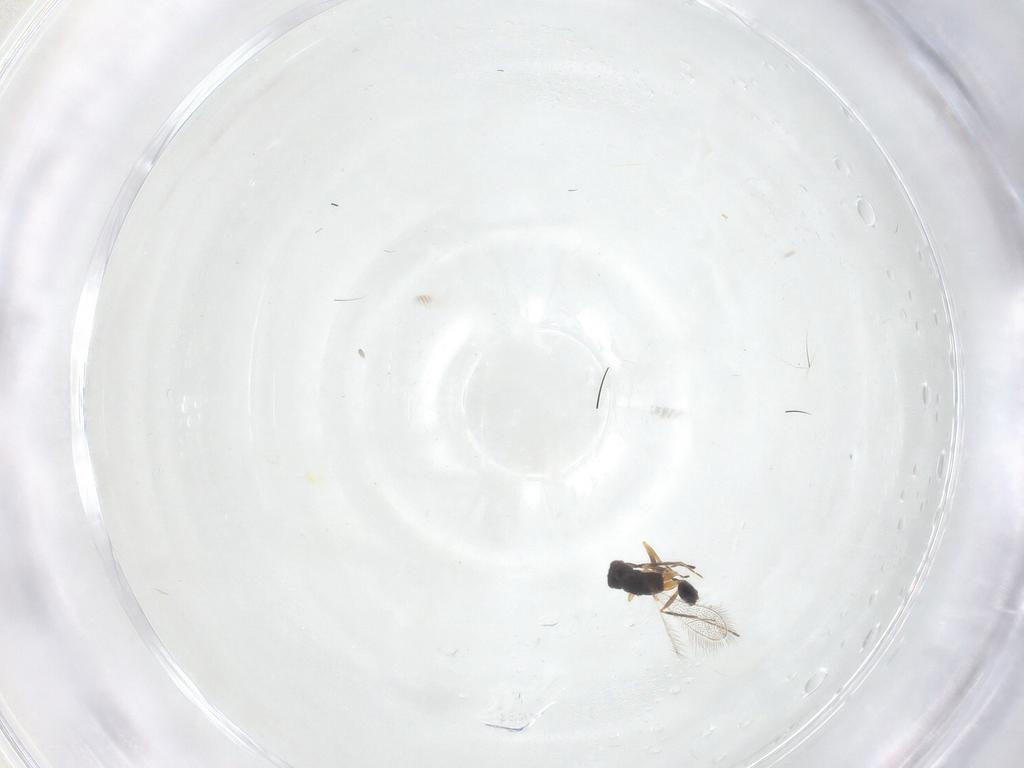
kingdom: Animalia
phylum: Arthropoda
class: Insecta
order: Hymenoptera
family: Mymaridae
